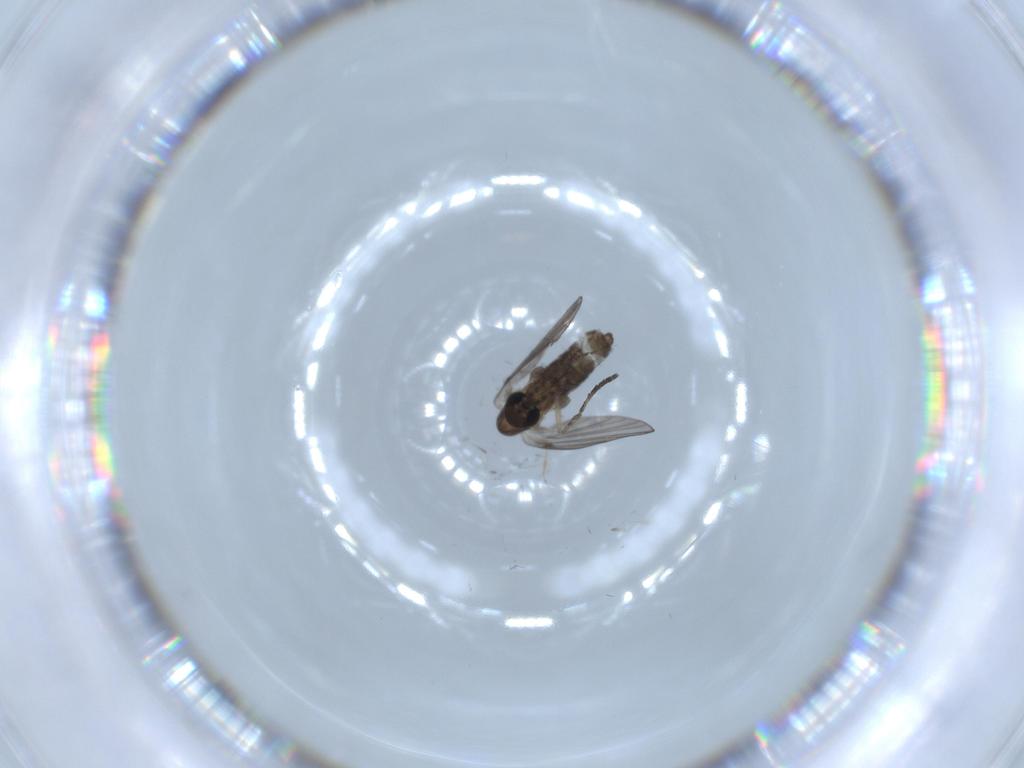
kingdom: Animalia
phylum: Arthropoda
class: Insecta
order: Diptera
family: Psychodidae
